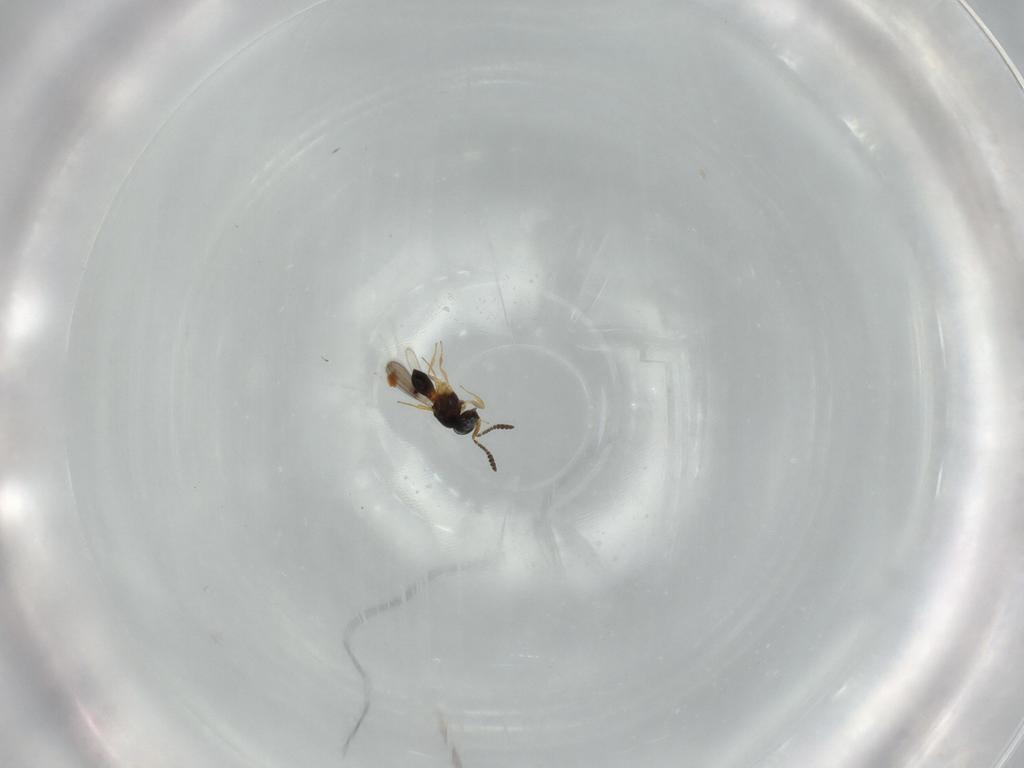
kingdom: Animalia
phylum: Arthropoda
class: Insecta
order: Hymenoptera
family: Scelionidae
